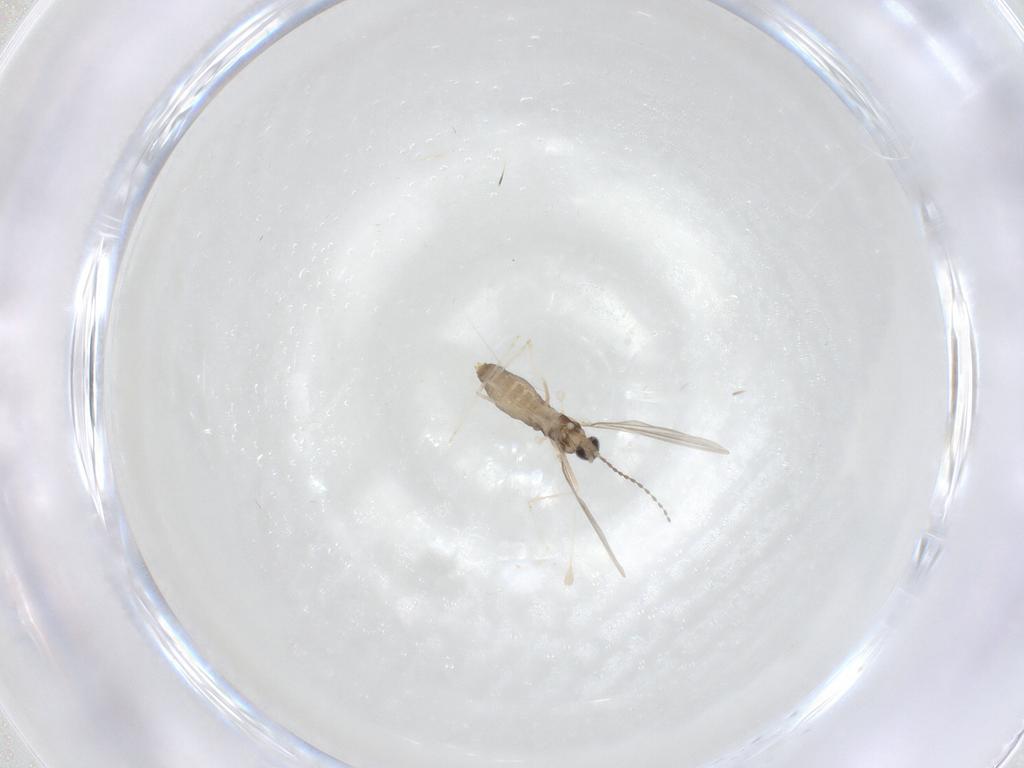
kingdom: Animalia
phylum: Arthropoda
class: Insecta
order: Diptera
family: Cecidomyiidae
